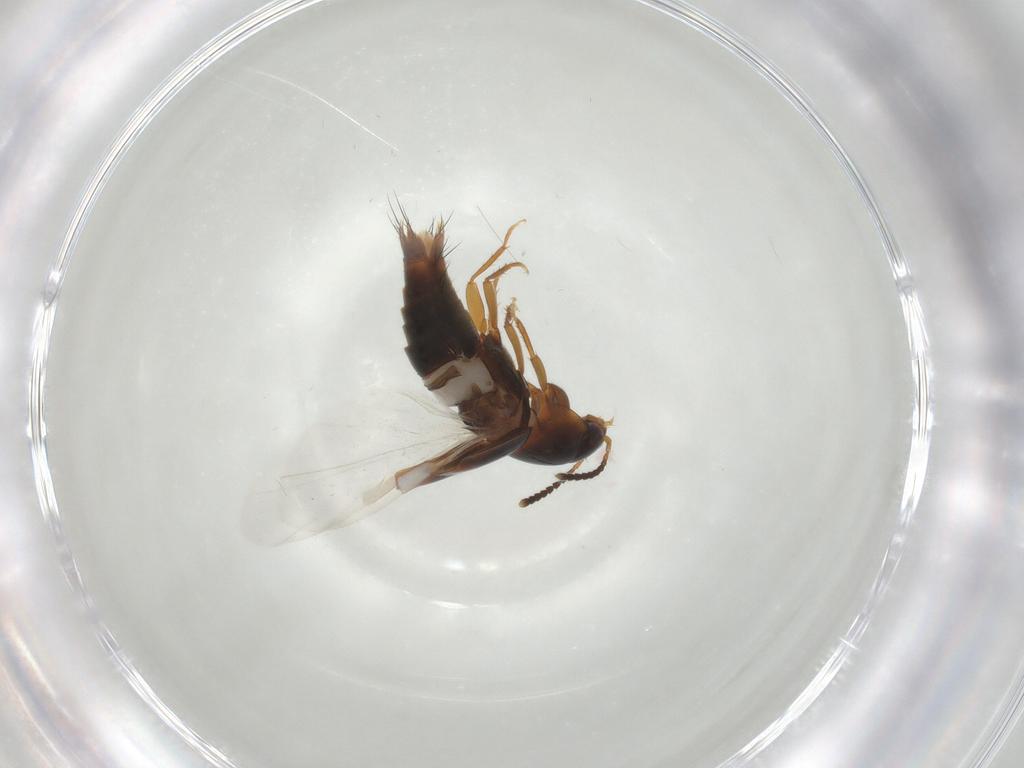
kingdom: Animalia
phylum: Arthropoda
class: Insecta
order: Coleoptera
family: Staphylinidae
